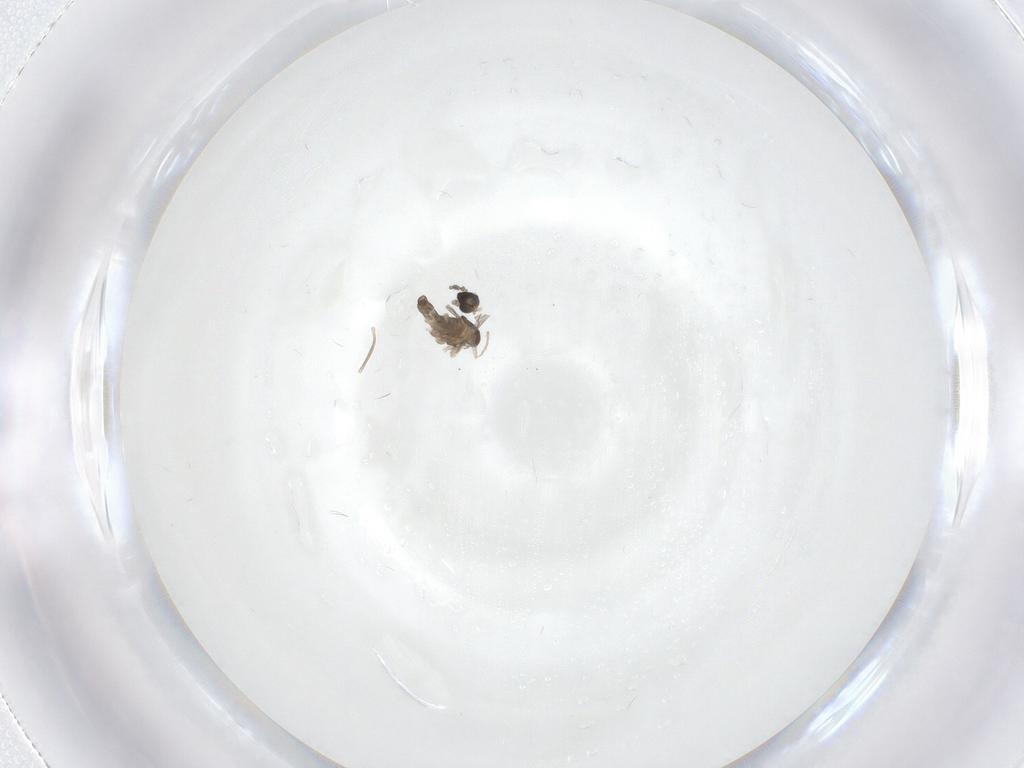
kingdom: Animalia
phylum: Arthropoda
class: Insecta
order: Diptera
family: Cecidomyiidae
